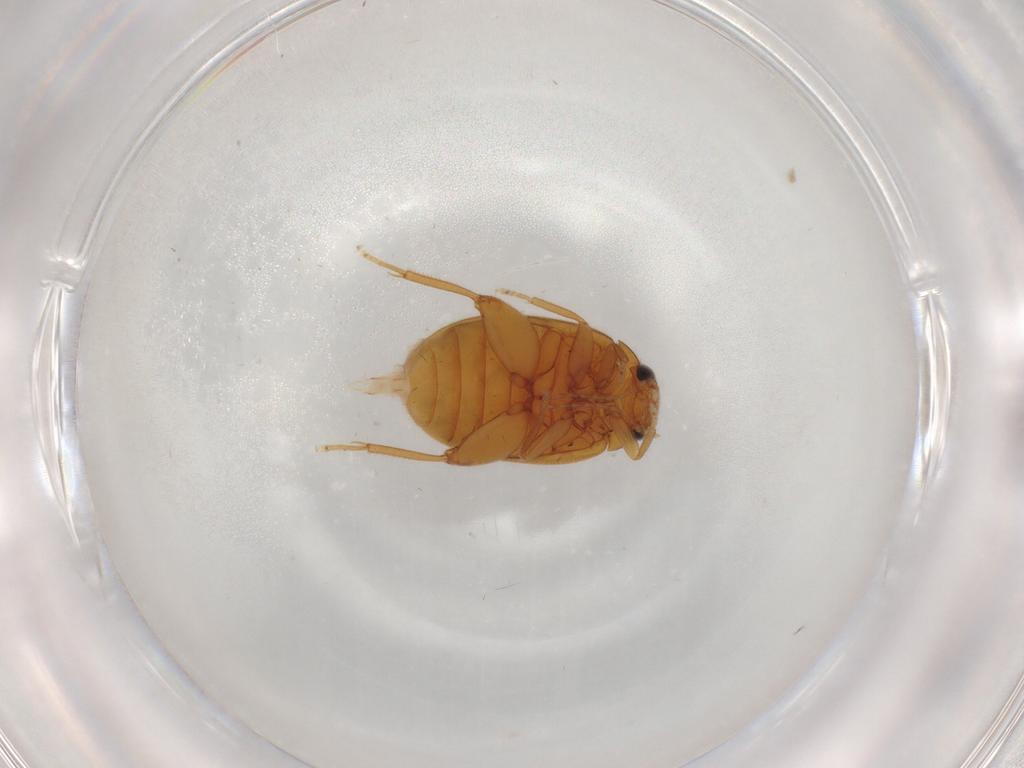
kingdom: Animalia
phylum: Arthropoda
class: Insecta
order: Coleoptera
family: Scirtidae
